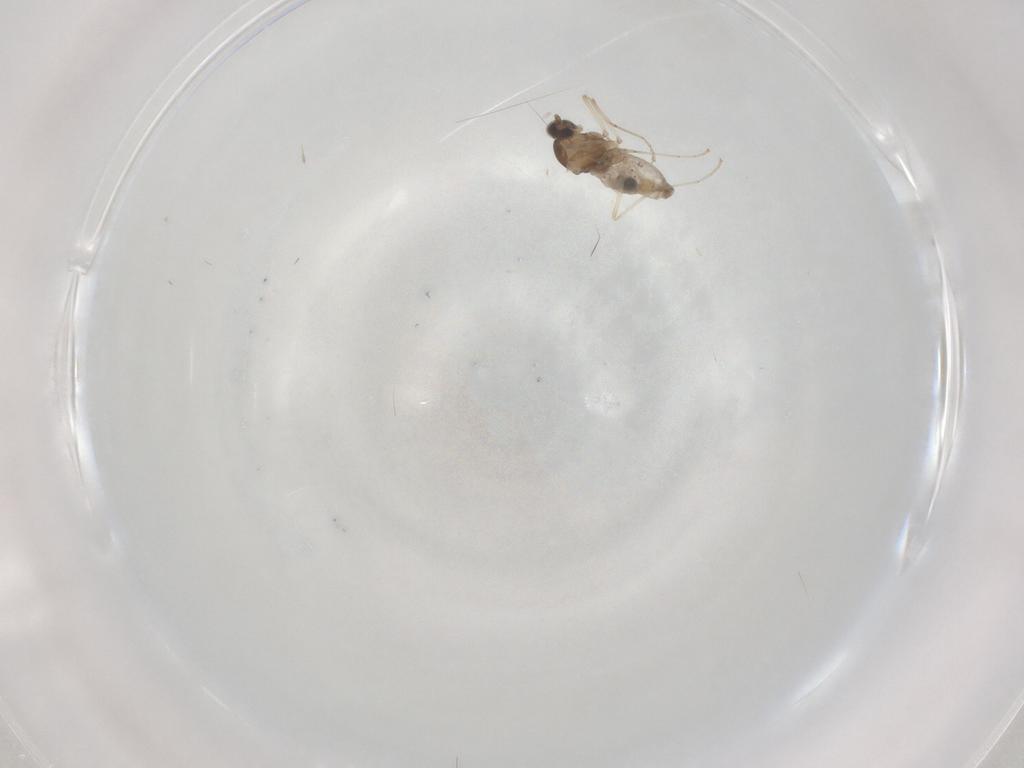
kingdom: Animalia
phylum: Arthropoda
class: Insecta
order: Diptera
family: Cecidomyiidae
